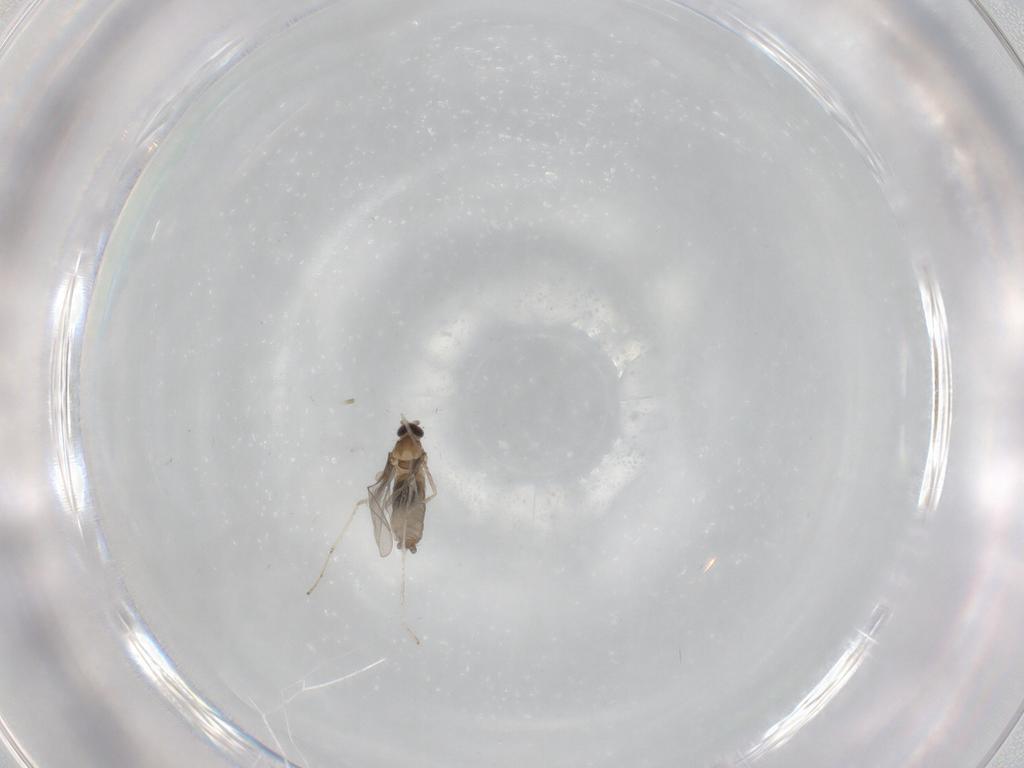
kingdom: Animalia
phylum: Arthropoda
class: Insecta
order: Diptera
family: Cecidomyiidae
